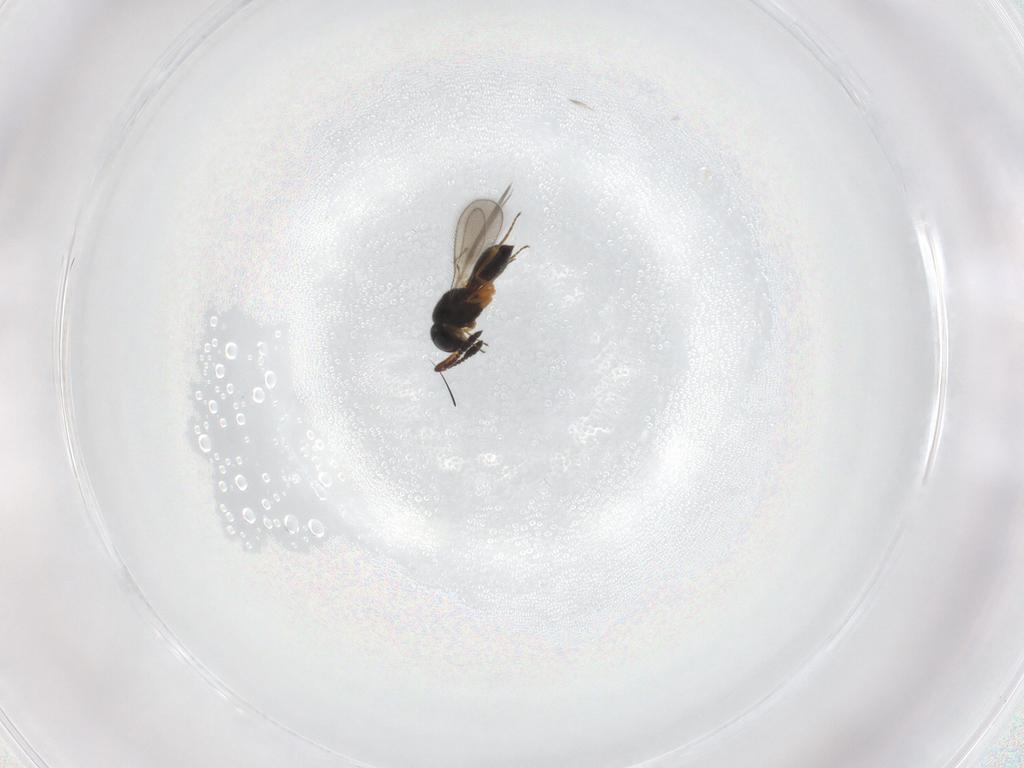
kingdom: Animalia
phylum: Arthropoda
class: Insecta
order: Hymenoptera
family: Scelionidae
